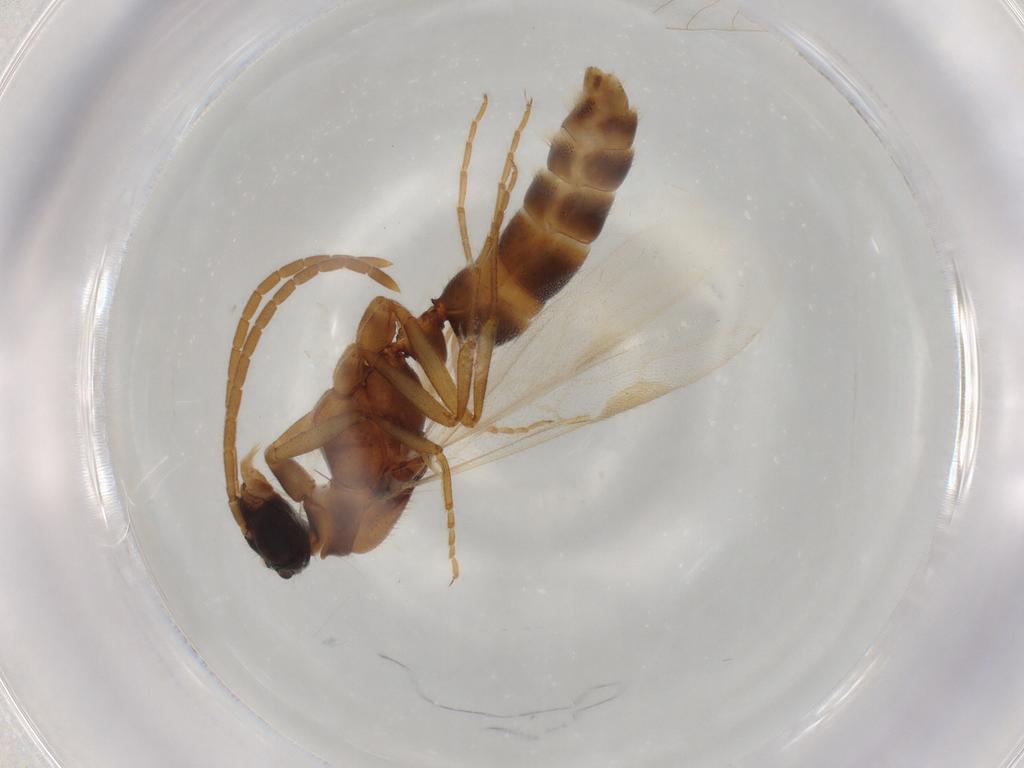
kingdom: Animalia
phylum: Arthropoda
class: Insecta
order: Hymenoptera
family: Formicidae
